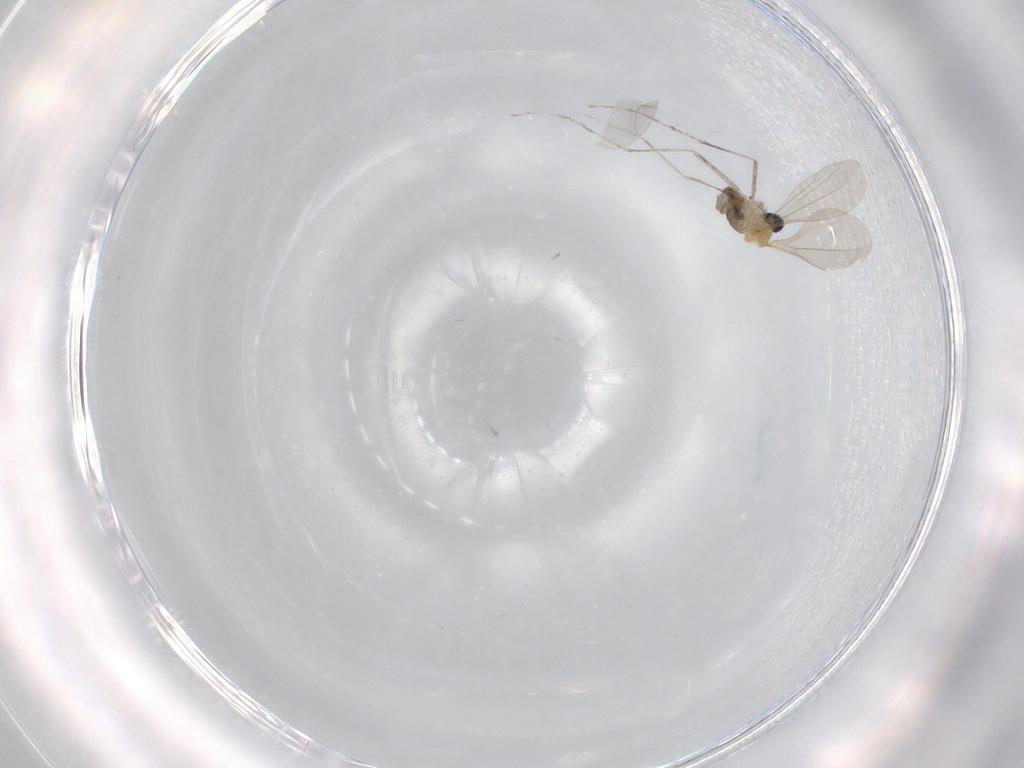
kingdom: Animalia
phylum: Arthropoda
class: Insecta
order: Diptera
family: Cecidomyiidae
